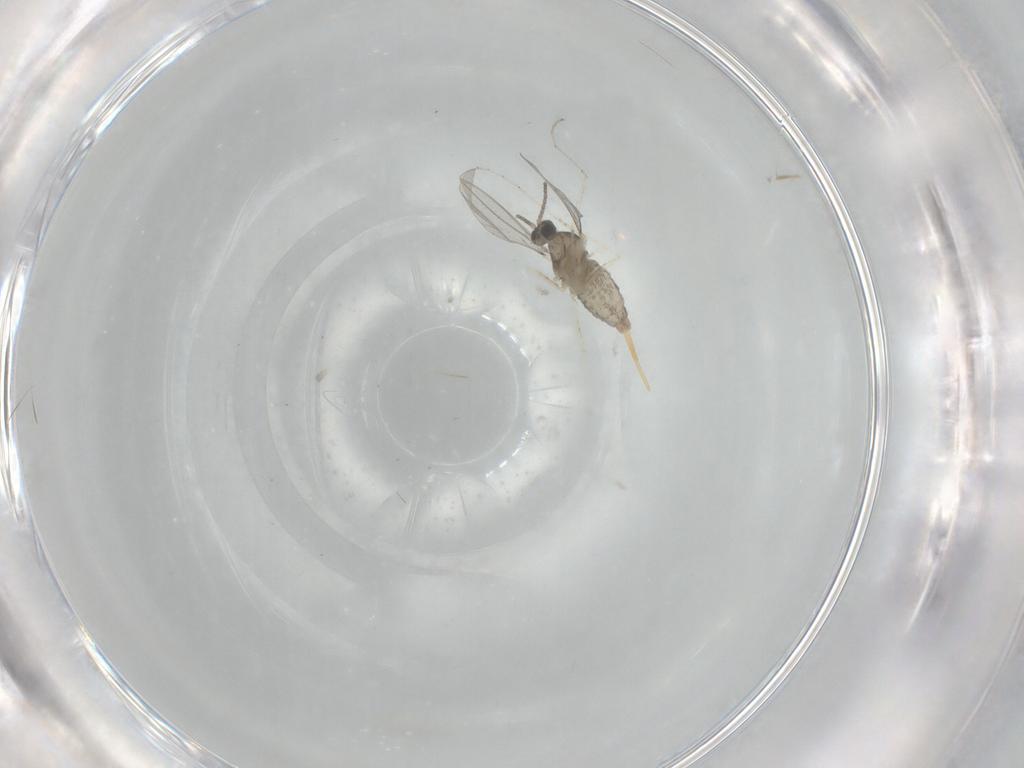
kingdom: Animalia
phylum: Arthropoda
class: Insecta
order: Diptera
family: Cecidomyiidae
